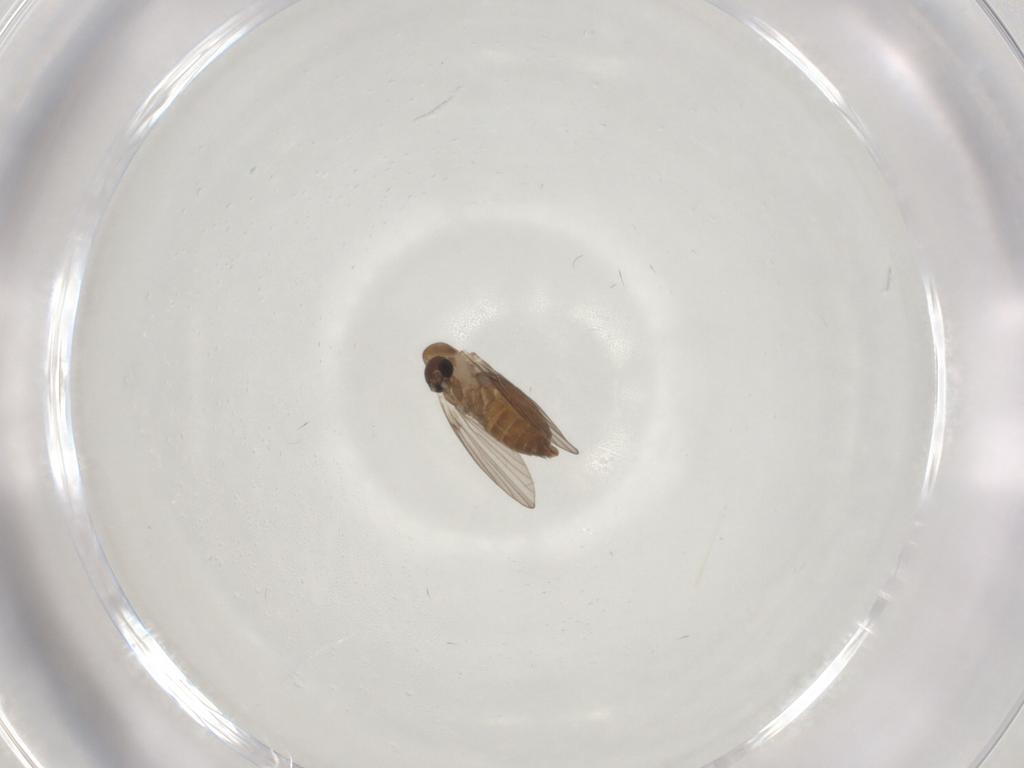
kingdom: Animalia
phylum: Arthropoda
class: Insecta
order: Diptera
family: Psychodidae
